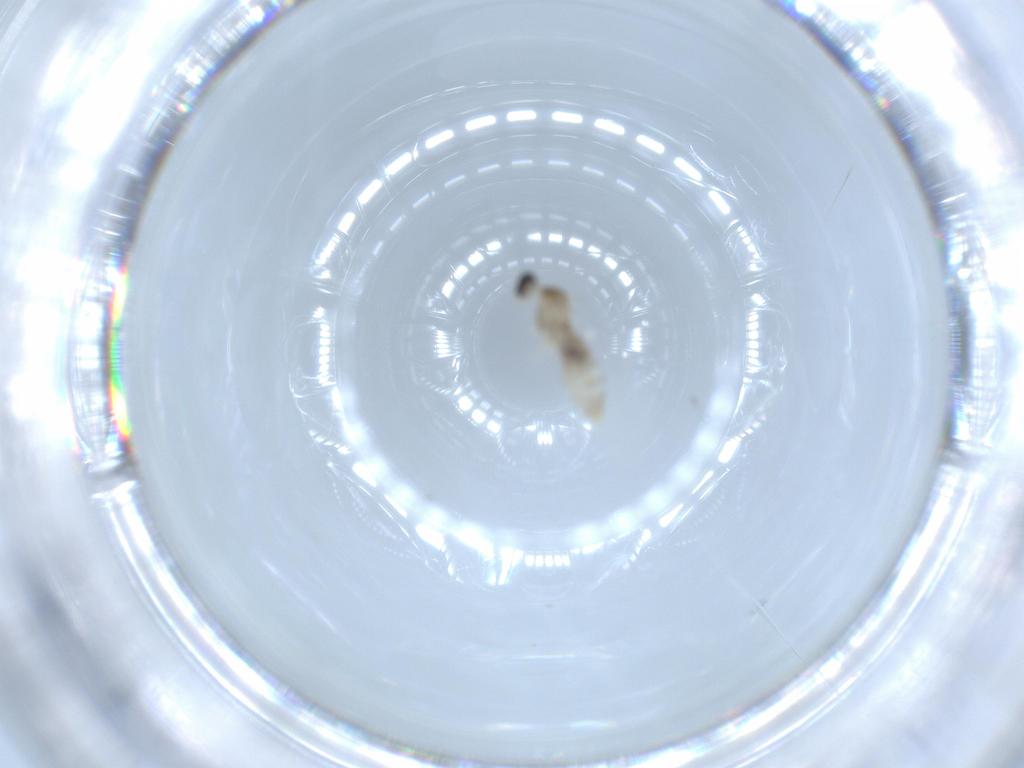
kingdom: Animalia
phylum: Arthropoda
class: Insecta
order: Diptera
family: Cecidomyiidae
